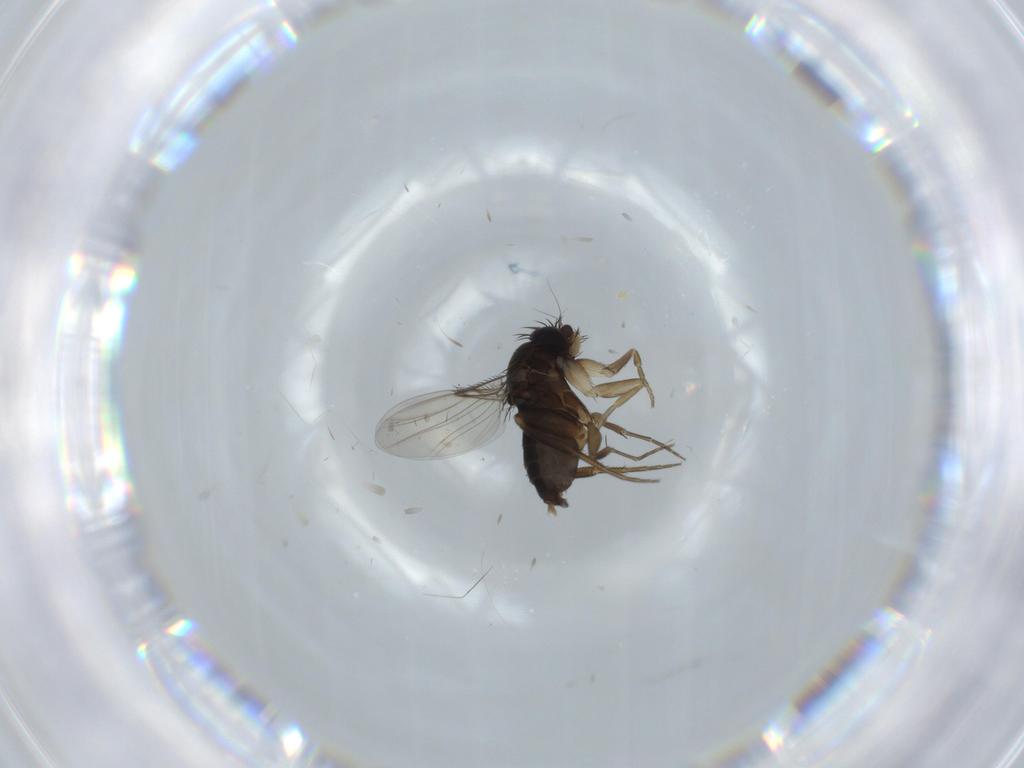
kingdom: Animalia
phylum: Arthropoda
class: Insecta
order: Diptera
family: Phoridae
